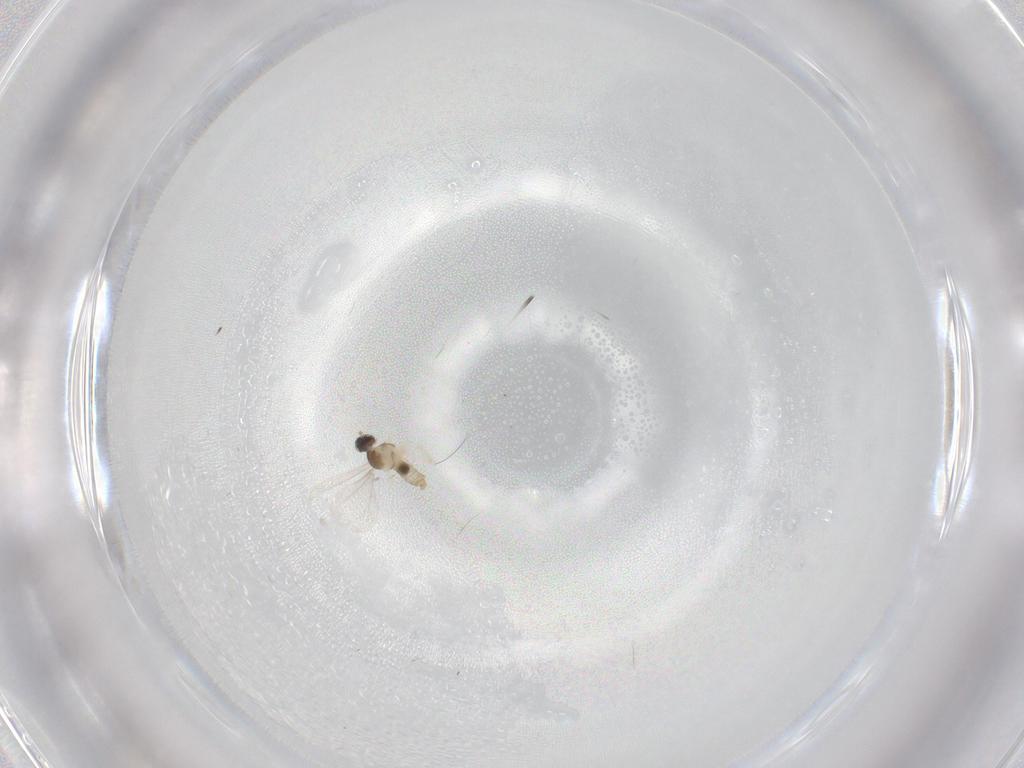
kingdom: Animalia
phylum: Arthropoda
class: Insecta
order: Diptera
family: Cecidomyiidae
